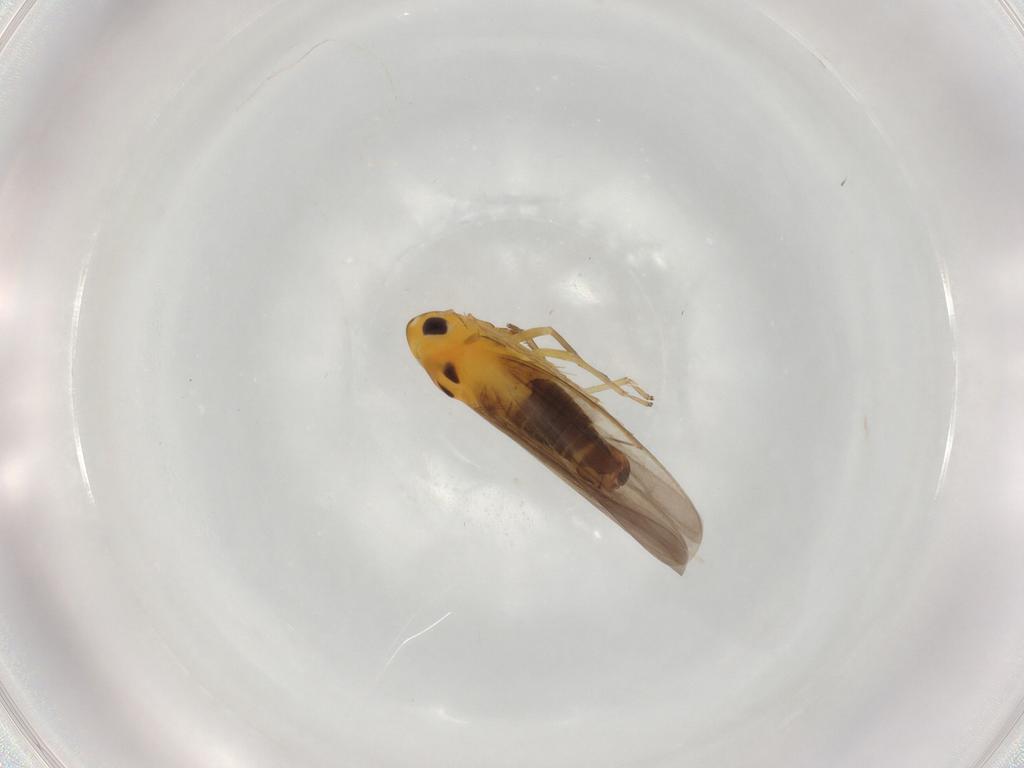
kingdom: Animalia
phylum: Arthropoda
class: Insecta
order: Hemiptera
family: Cicadellidae
